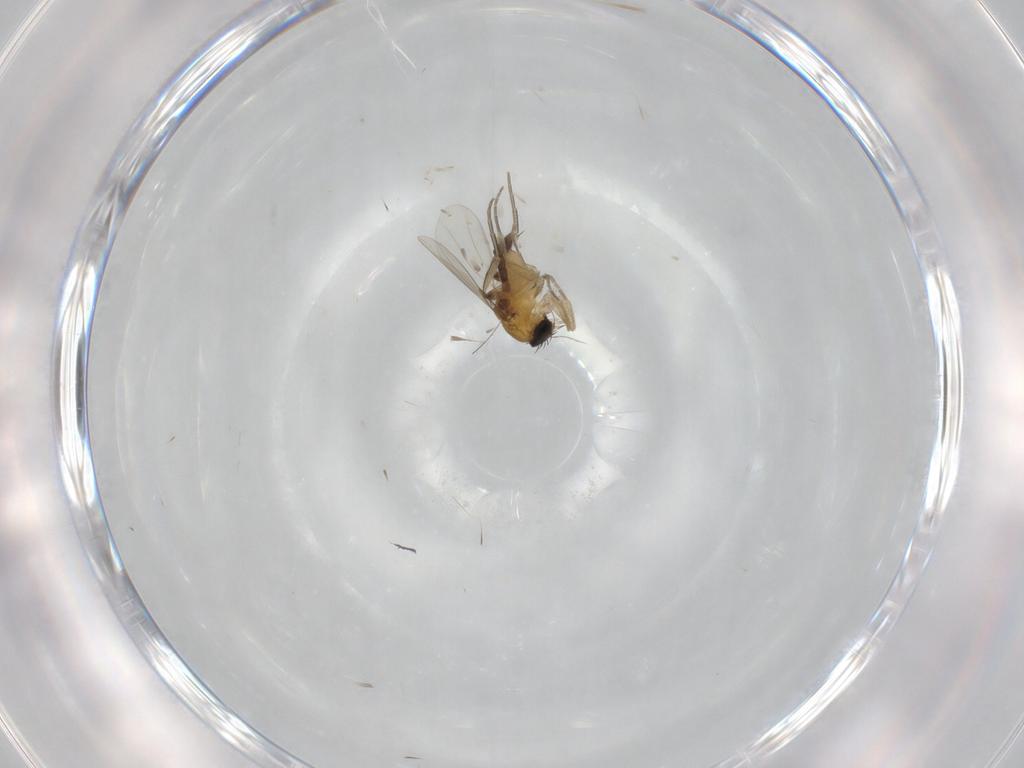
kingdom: Animalia
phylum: Arthropoda
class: Insecta
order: Diptera
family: Phoridae
